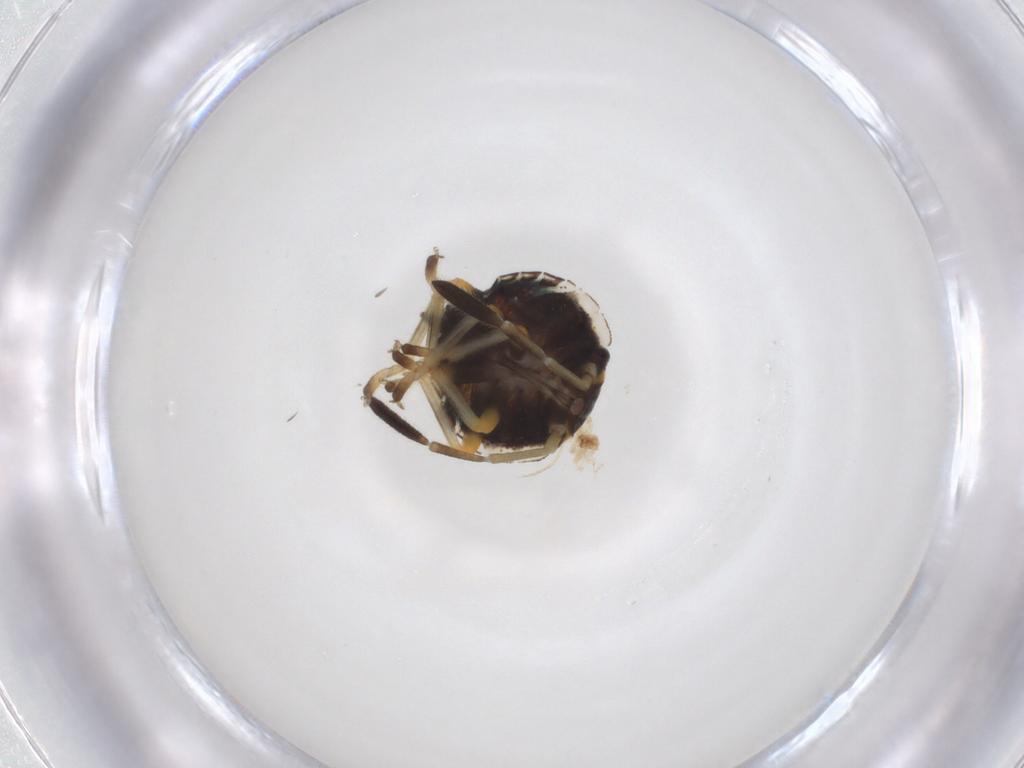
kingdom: Animalia
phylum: Arthropoda
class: Insecta
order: Hemiptera
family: Pentatomidae
